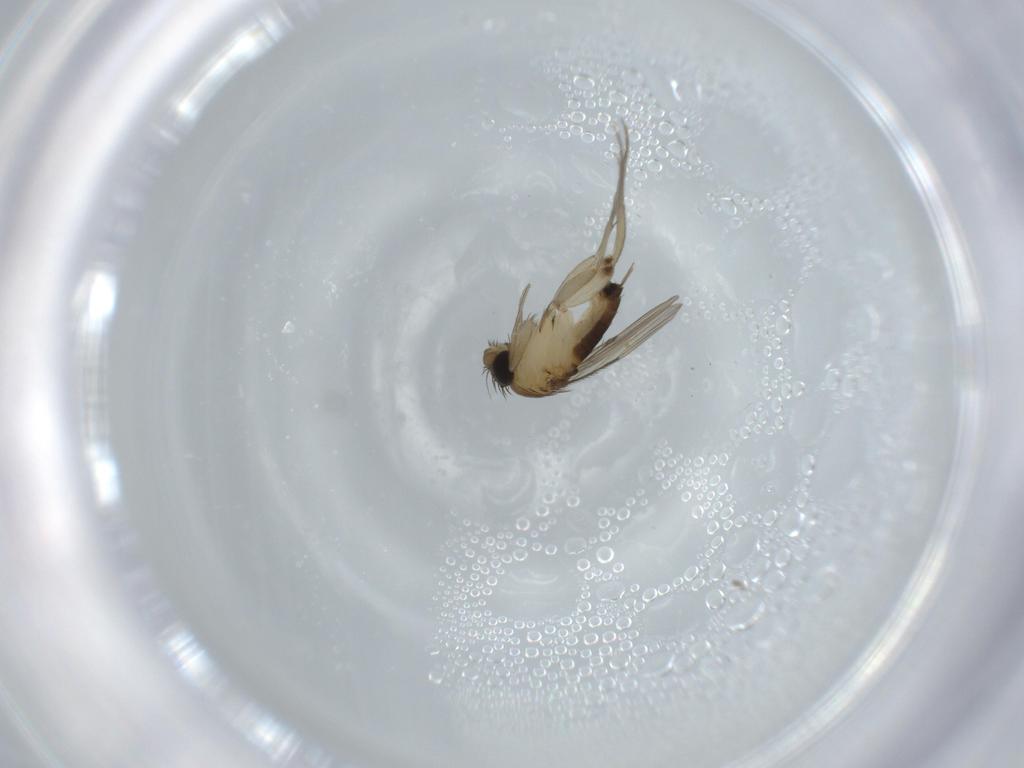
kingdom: Animalia
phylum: Arthropoda
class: Insecta
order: Diptera
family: Phoridae
